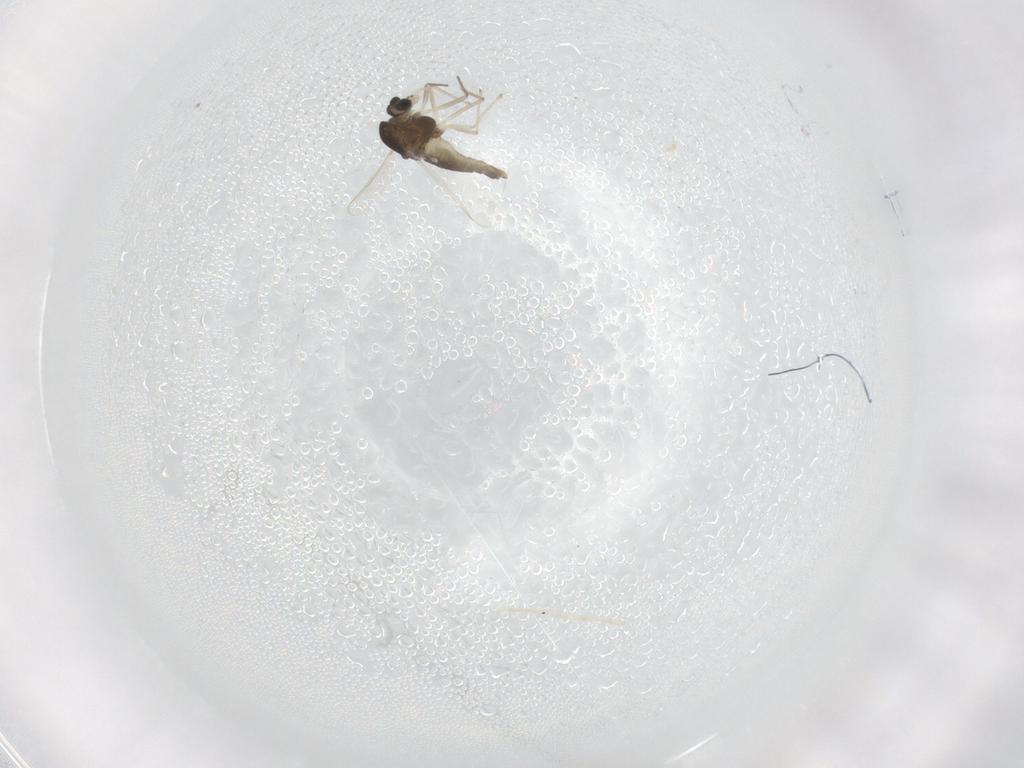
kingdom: Animalia
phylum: Arthropoda
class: Insecta
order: Diptera
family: Chironomidae
